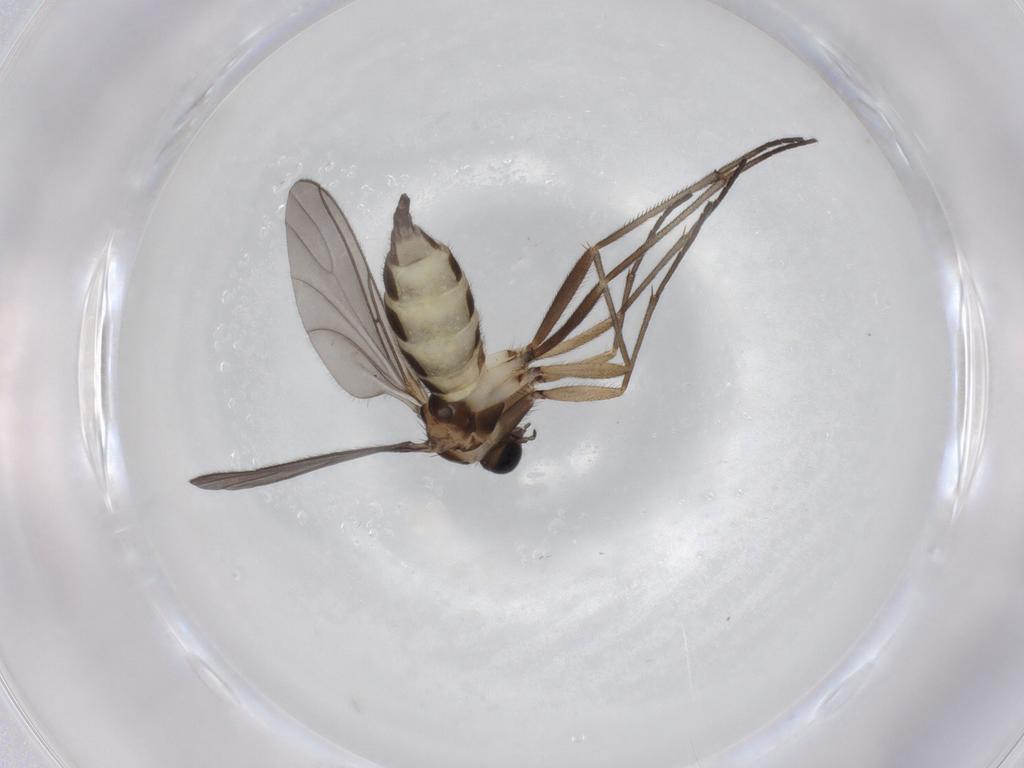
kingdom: Animalia
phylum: Arthropoda
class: Insecta
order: Diptera
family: Sciaridae
